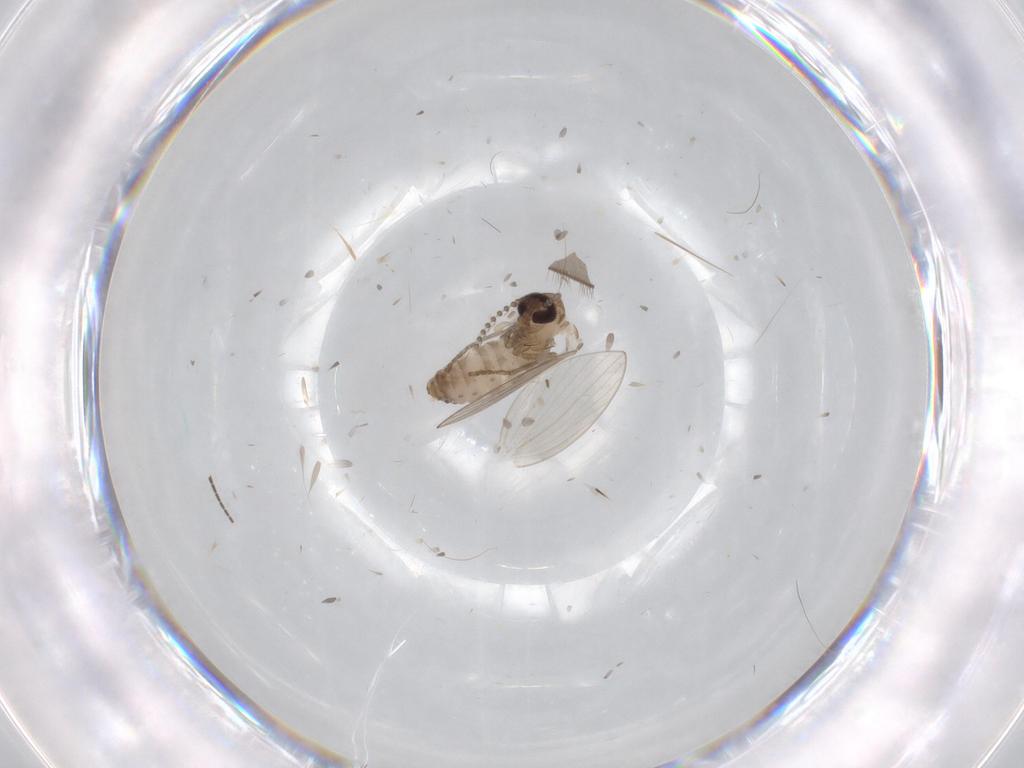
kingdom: Animalia
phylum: Arthropoda
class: Insecta
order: Diptera
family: Psychodidae
